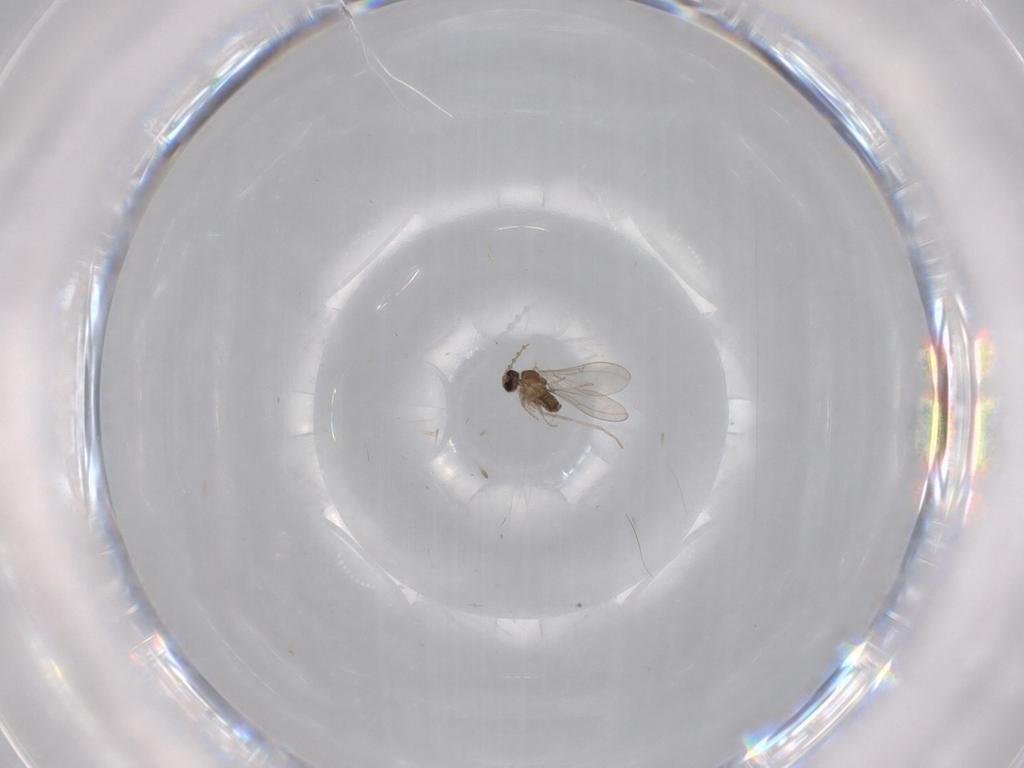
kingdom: Animalia
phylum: Arthropoda
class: Insecta
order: Diptera
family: Cecidomyiidae
